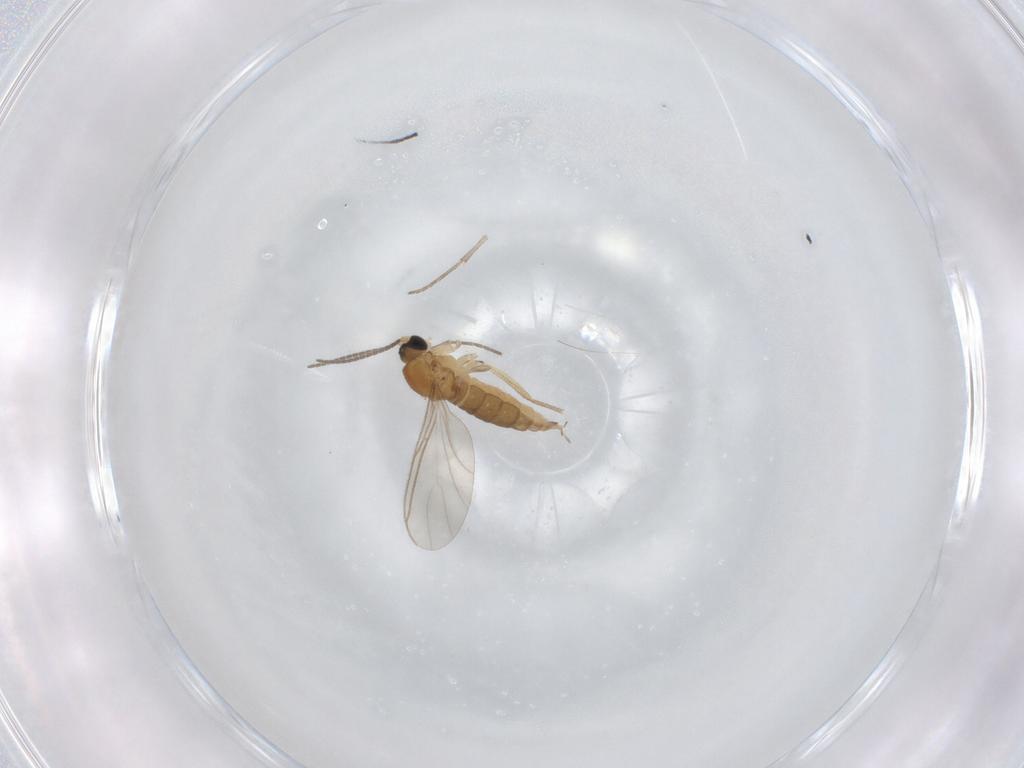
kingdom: Animalia
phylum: Arthropoda
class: Insecta
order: Diptera
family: Sciaridae
